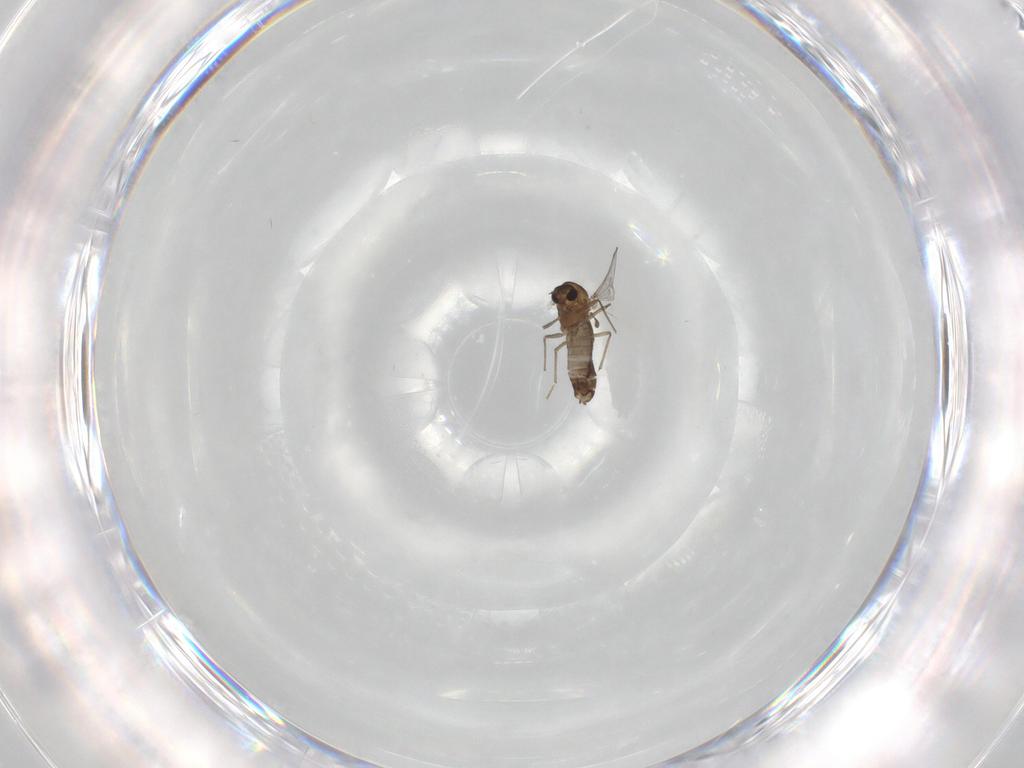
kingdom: Animalia
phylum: Arthropoda
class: Insecta
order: Diptera
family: Chironomidae
